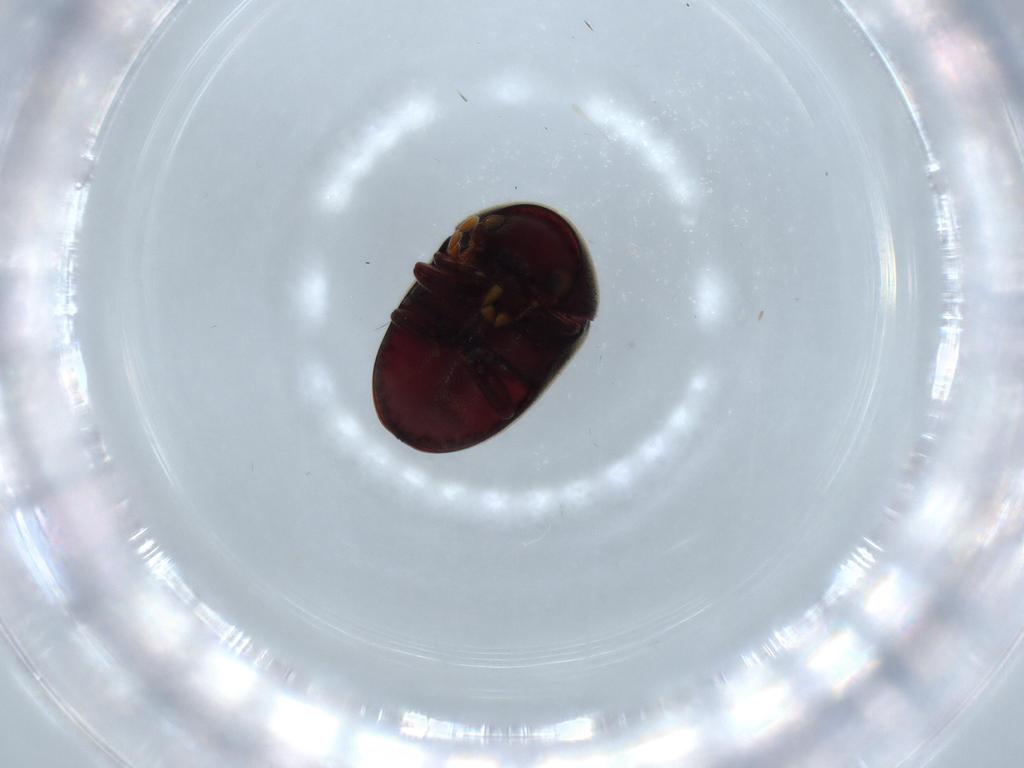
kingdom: Animalia
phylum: Arthropoda
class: Insecta
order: Coleoptera
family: Ptinidae
